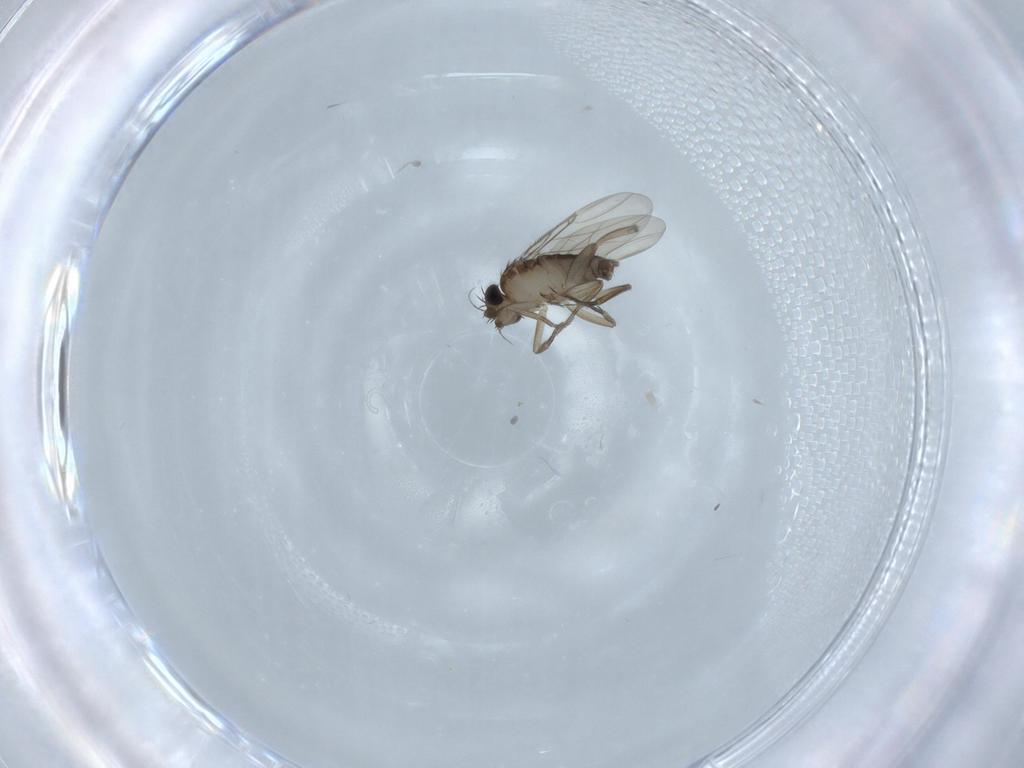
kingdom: Animalia
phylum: Arthropoda
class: Insecta
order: Diptera
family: Phoridae
